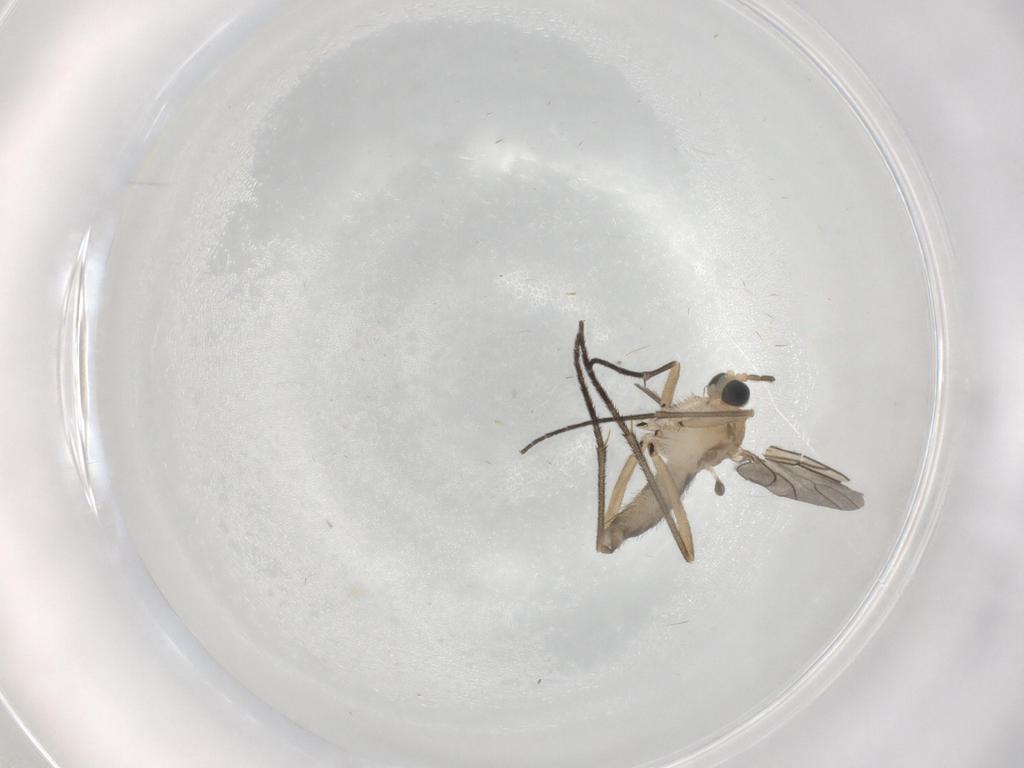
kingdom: Animalia
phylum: Arthropoda
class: Insecta
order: Diptera
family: Sciaridae
